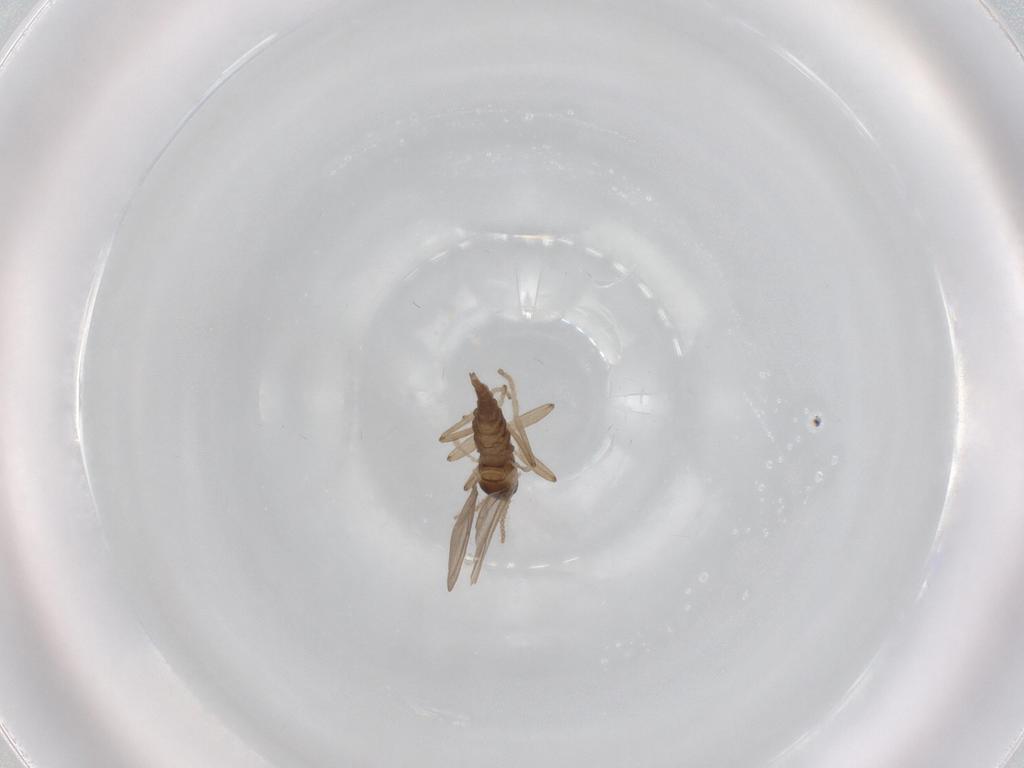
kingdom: Animalia
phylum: Arthropoda
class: Insecta
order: Diptera
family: Cecidomyiidae
